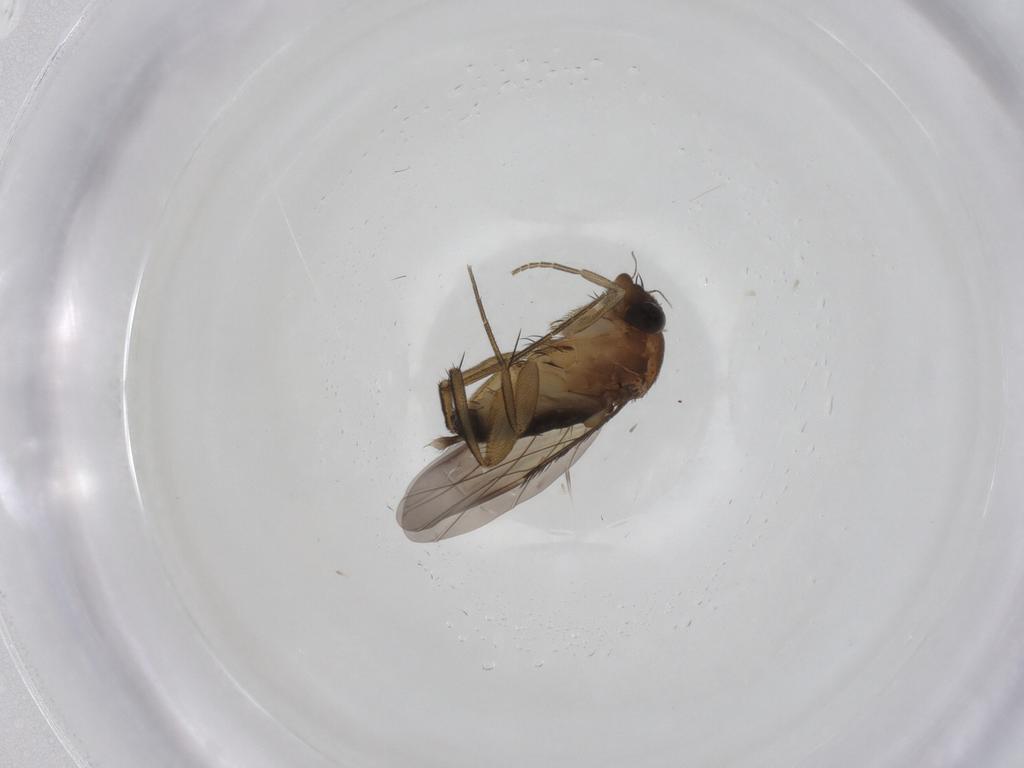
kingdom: Animalia
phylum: Arthropoda
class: Insecta
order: Diptera
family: Phoridae
